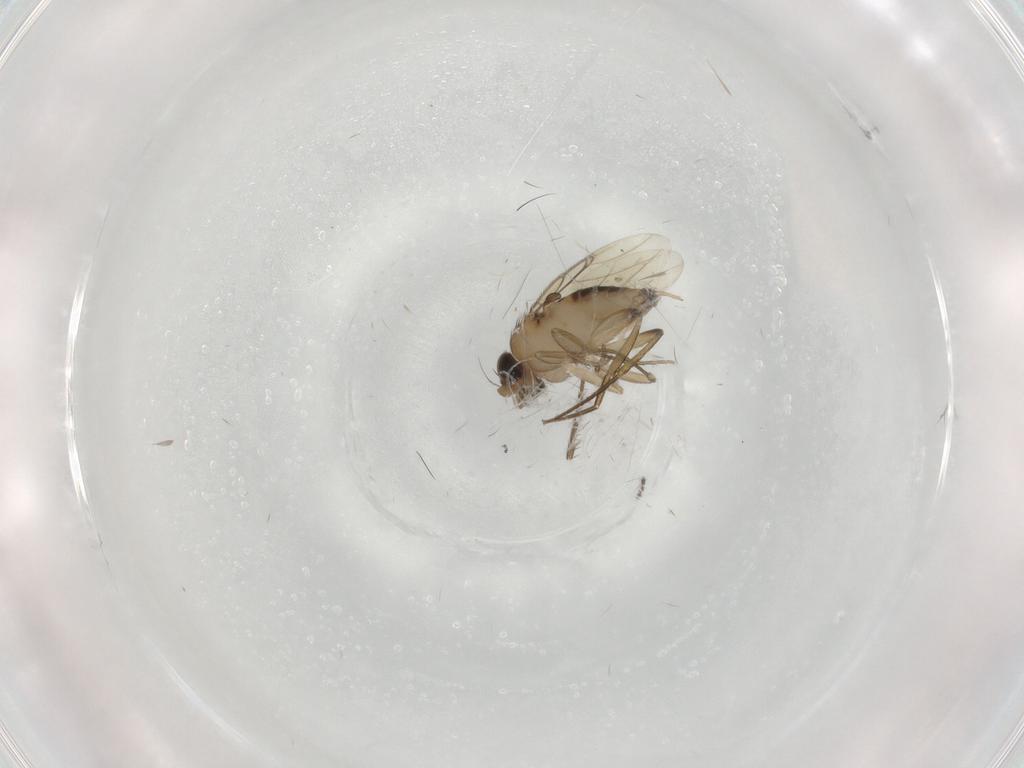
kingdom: Animalia
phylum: Arthropoda
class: Insecta
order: Diptera
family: Phoridae
